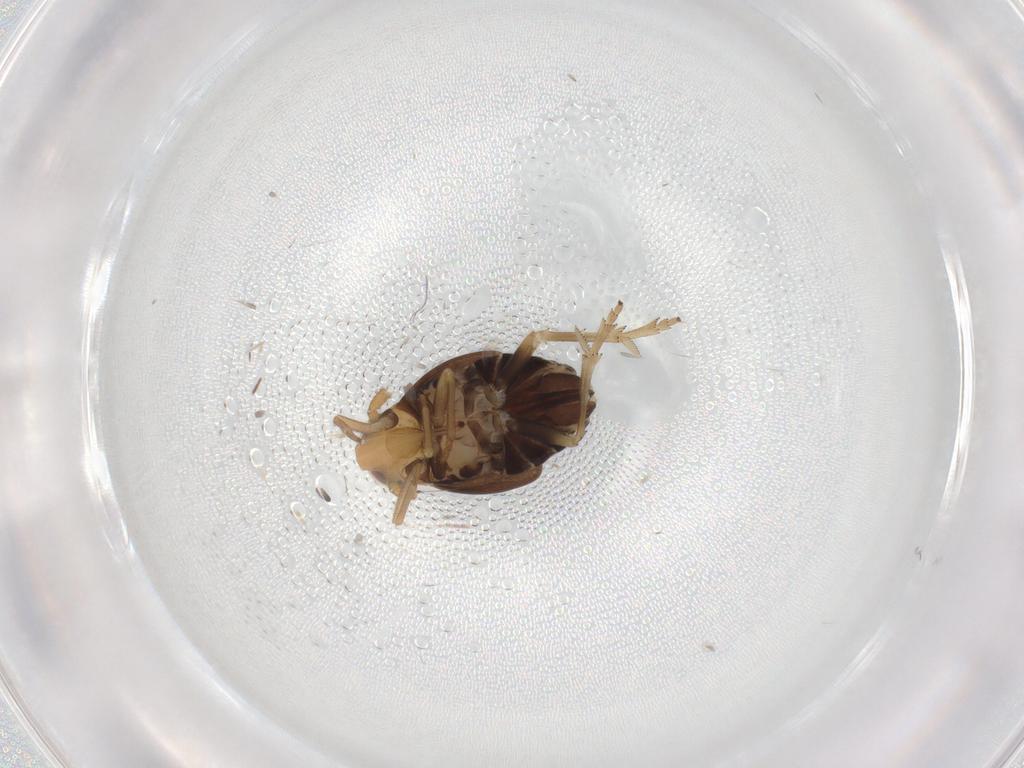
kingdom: Animalia
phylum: Arthropoda
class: Insecta
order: Hemiptera
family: Delphacidae
